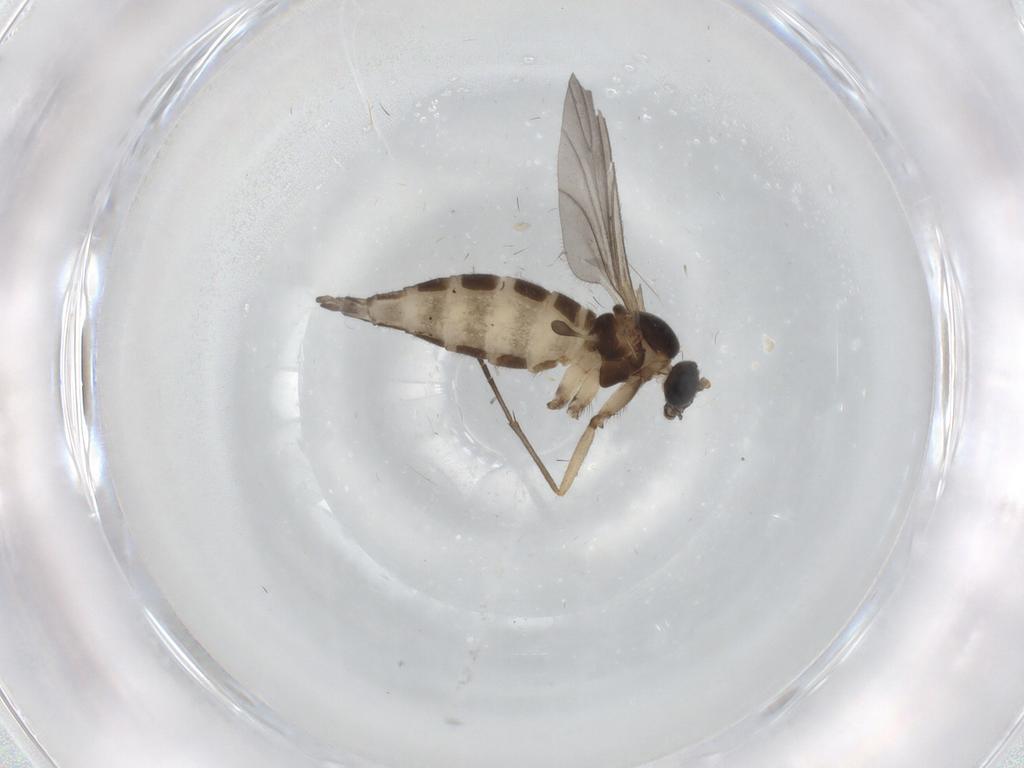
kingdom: Animalia
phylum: Arthropoda
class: Insecta
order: Diptera
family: Sciaridae
